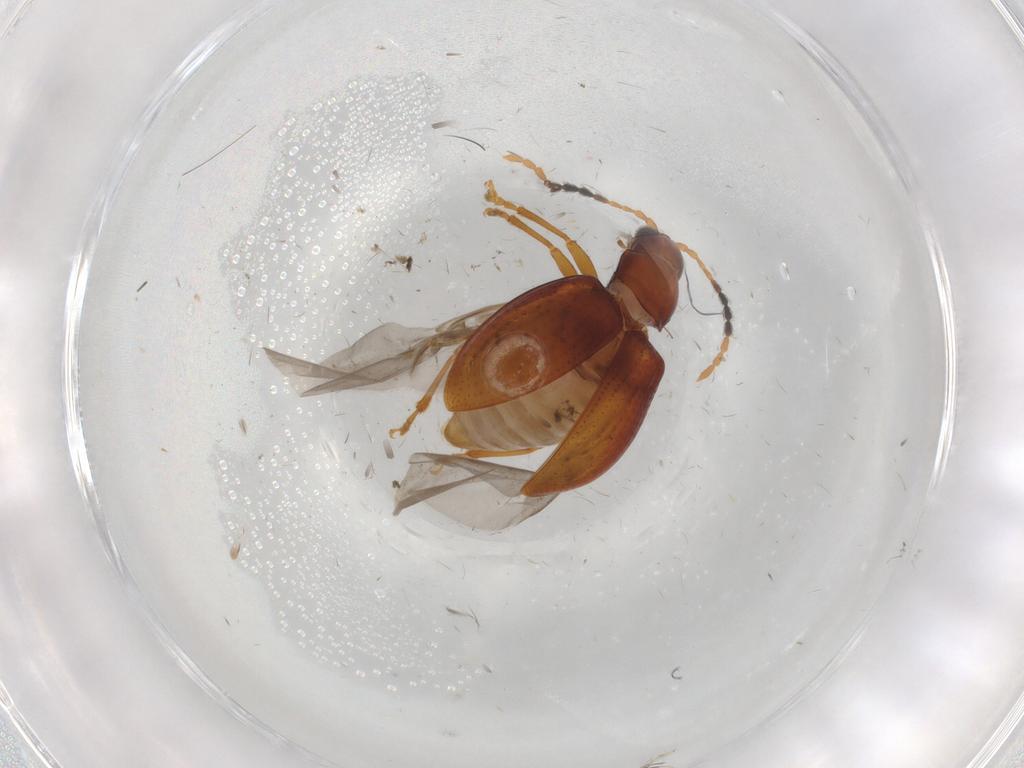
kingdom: Animalia
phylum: Arthropoda
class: Insecta
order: Coleoptera
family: Chrysomelidae
